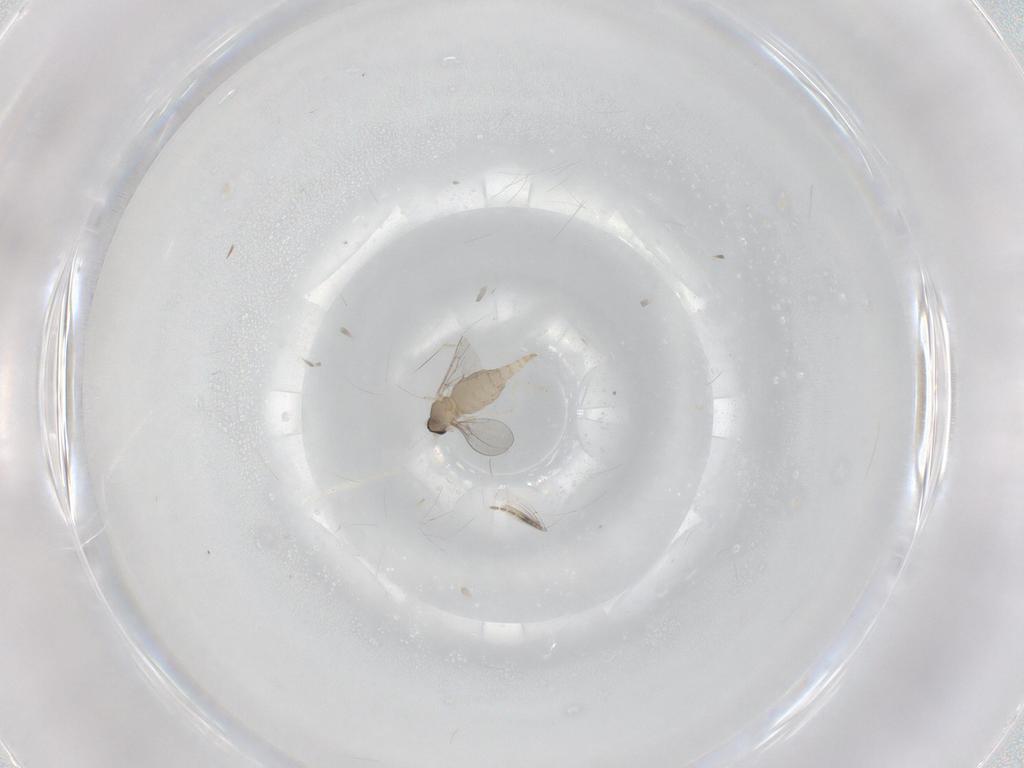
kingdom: Animalia
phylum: Arthropoda
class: Insecta
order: Diptera
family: Cecidomyiidae
